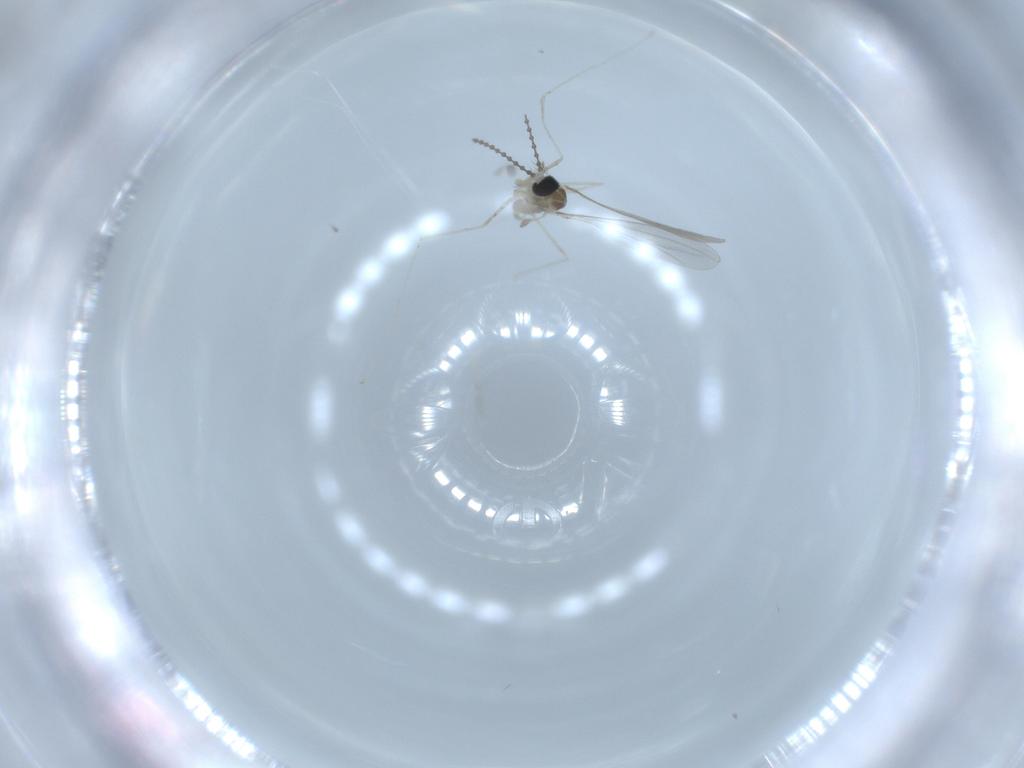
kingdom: Animalia
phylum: Arthropoda
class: Insecta
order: Diptera
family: Cecidomyiidae
